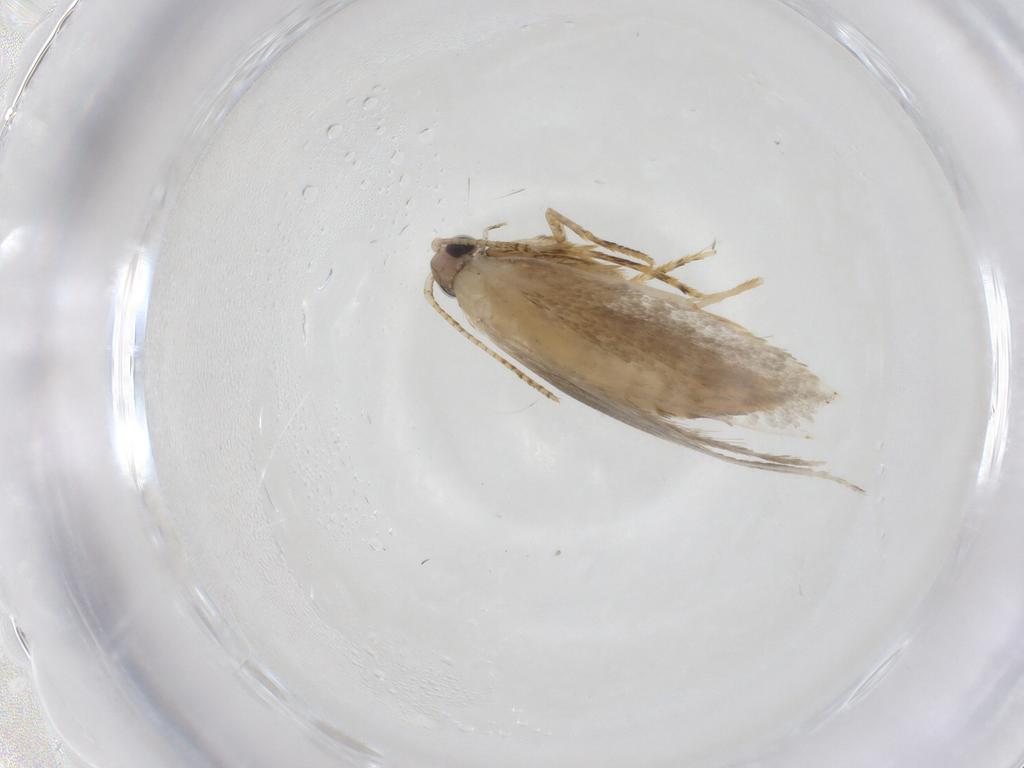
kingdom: Animalia
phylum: Arthropoda
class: Insecta
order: Lepidoptera
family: Tineidae
